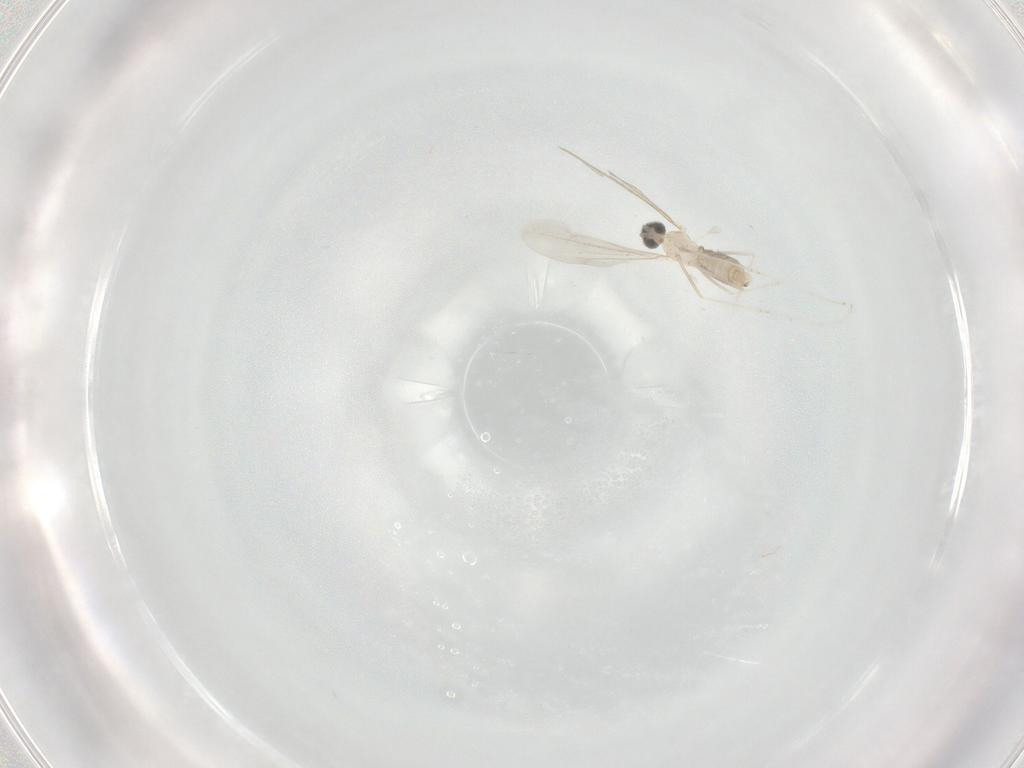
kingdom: Animalia
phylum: Arthropoda
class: Insecta
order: Diptera
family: Cecidomyiidae
